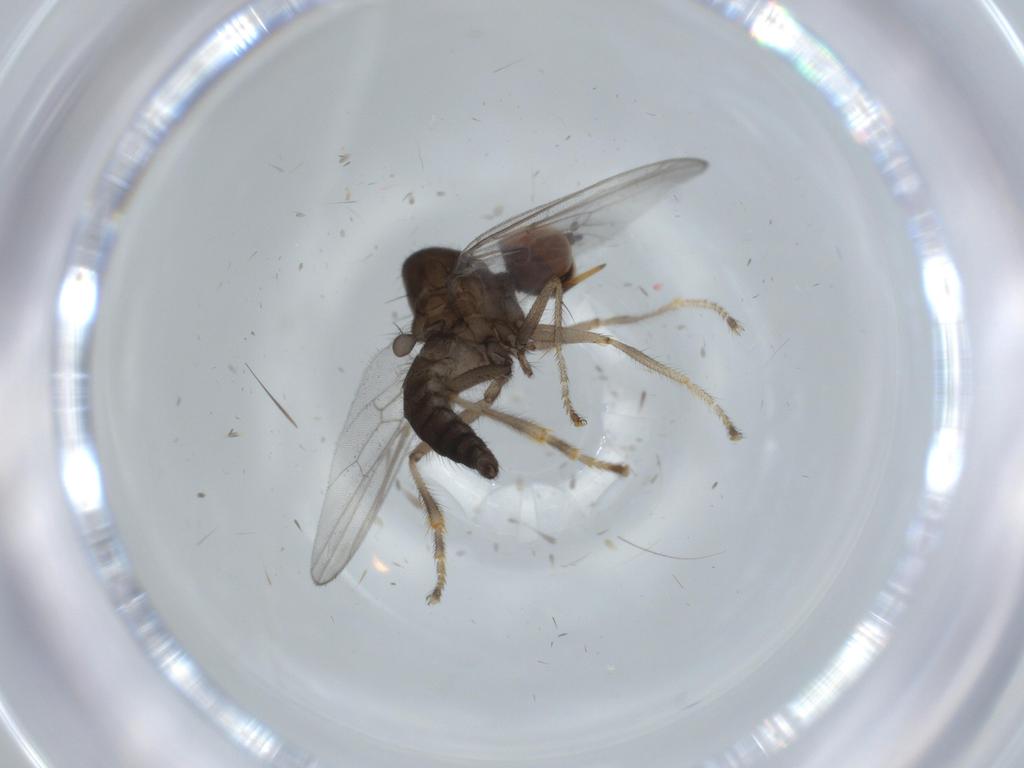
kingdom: Animalia
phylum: Arthropoda
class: Insecta
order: Diptera
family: Hybotidae
